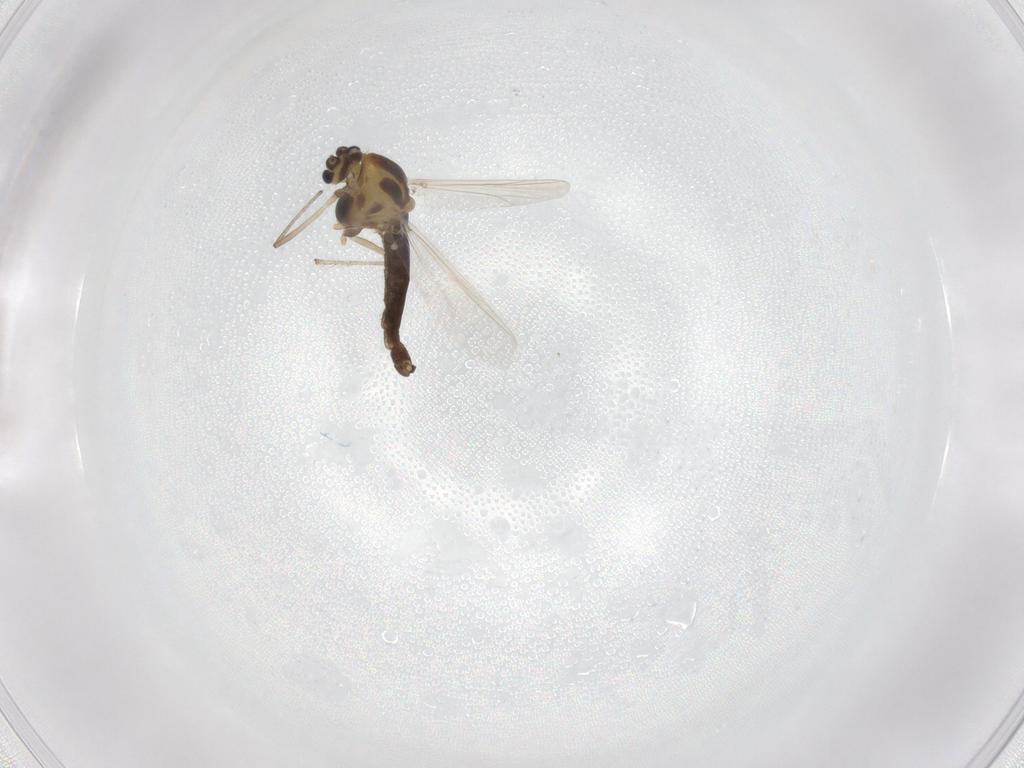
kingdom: Animalia
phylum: Arthropoda
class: Insecta
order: Diptera
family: Chironomidae
